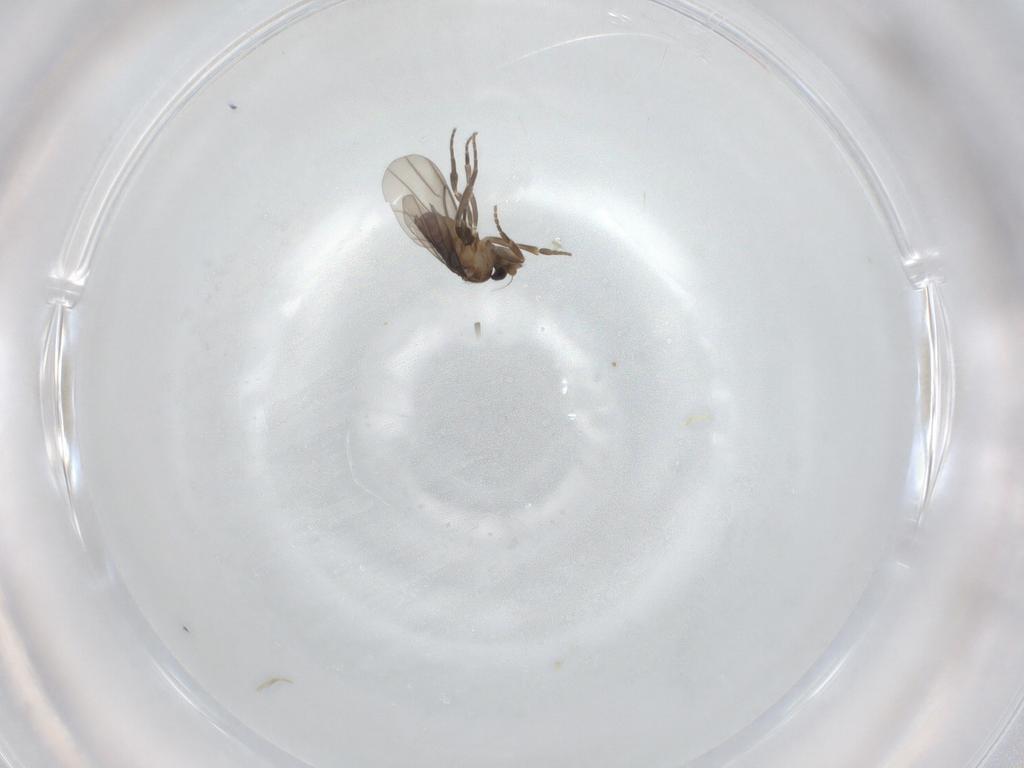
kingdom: Animalia
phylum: Arthropoda
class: Insecta
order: Diptera
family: Phoridae
